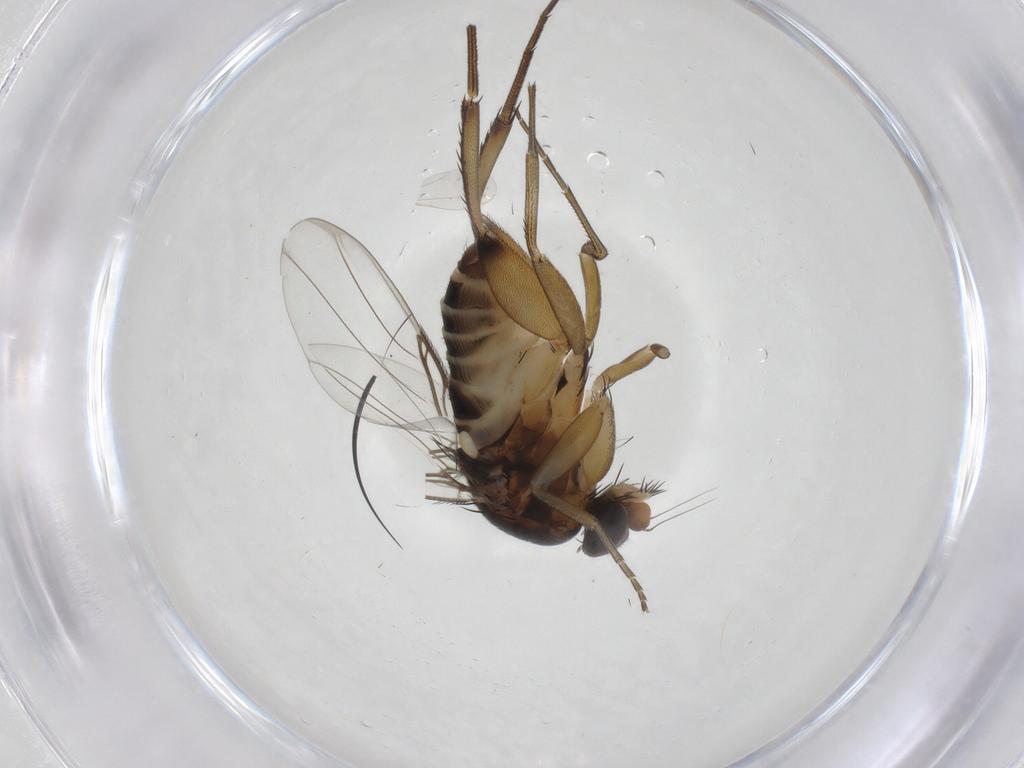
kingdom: Animalia
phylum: Arthropoda
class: Insecta
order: Diptera
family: Phoridae
